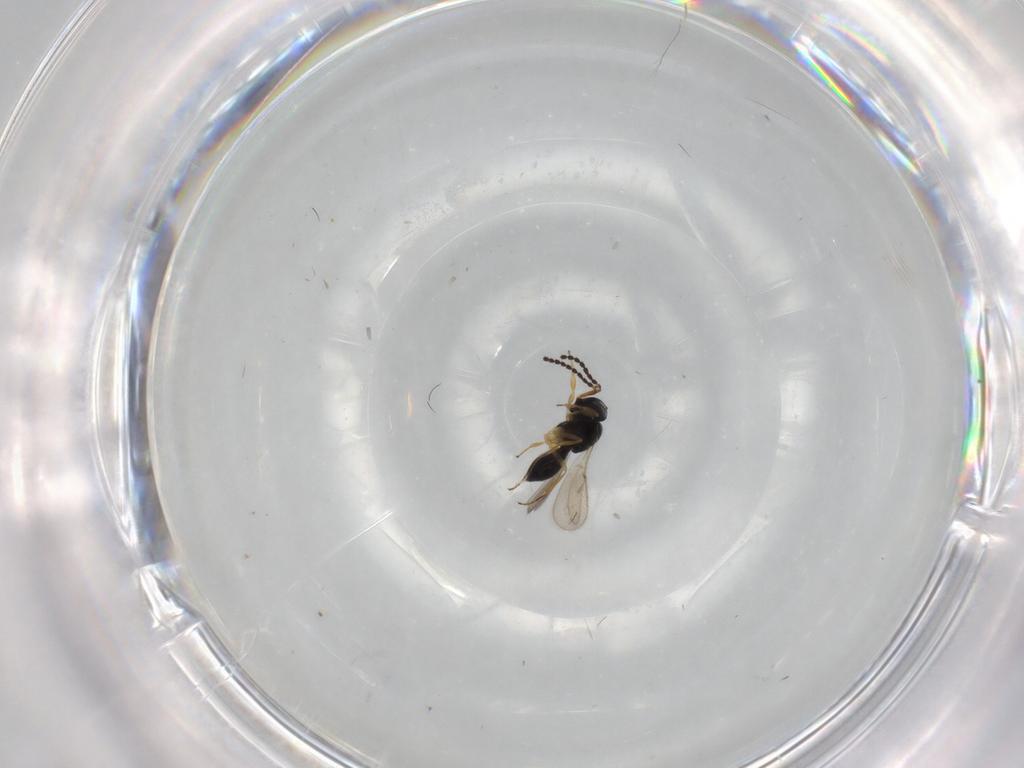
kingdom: Animalia
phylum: Arthropoda
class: Insecta
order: Hymenoptera
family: Scelionidae
